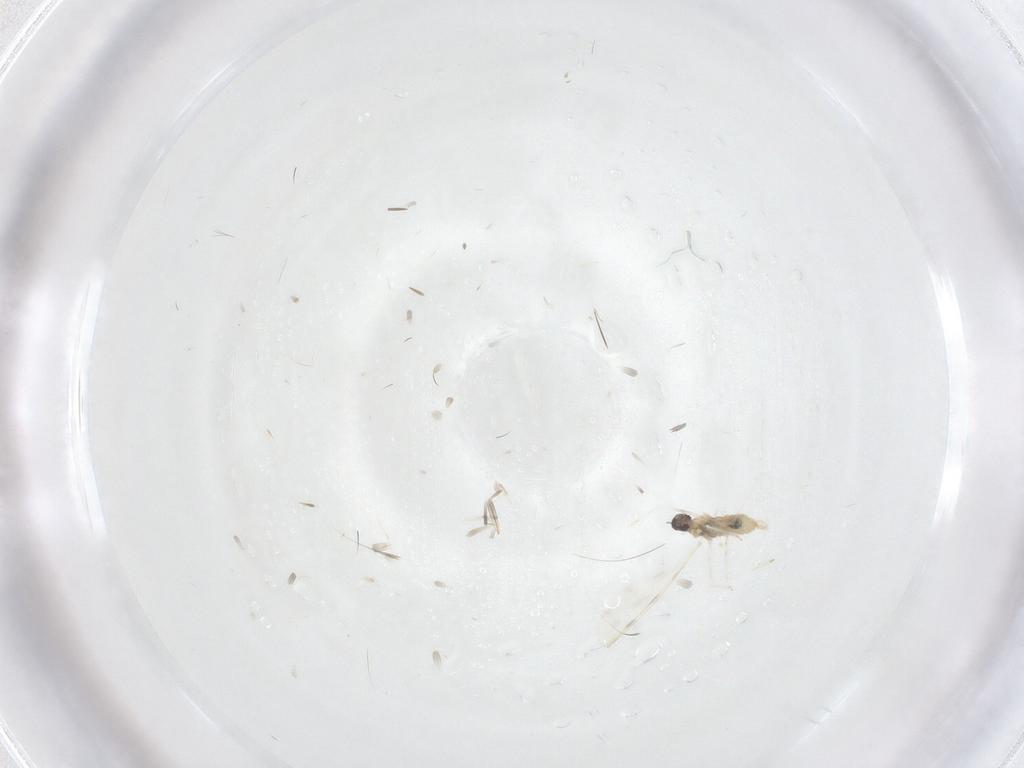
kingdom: Animalia
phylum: Arthropoda
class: Insecta
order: Diptera
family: Cecidomyiidae
